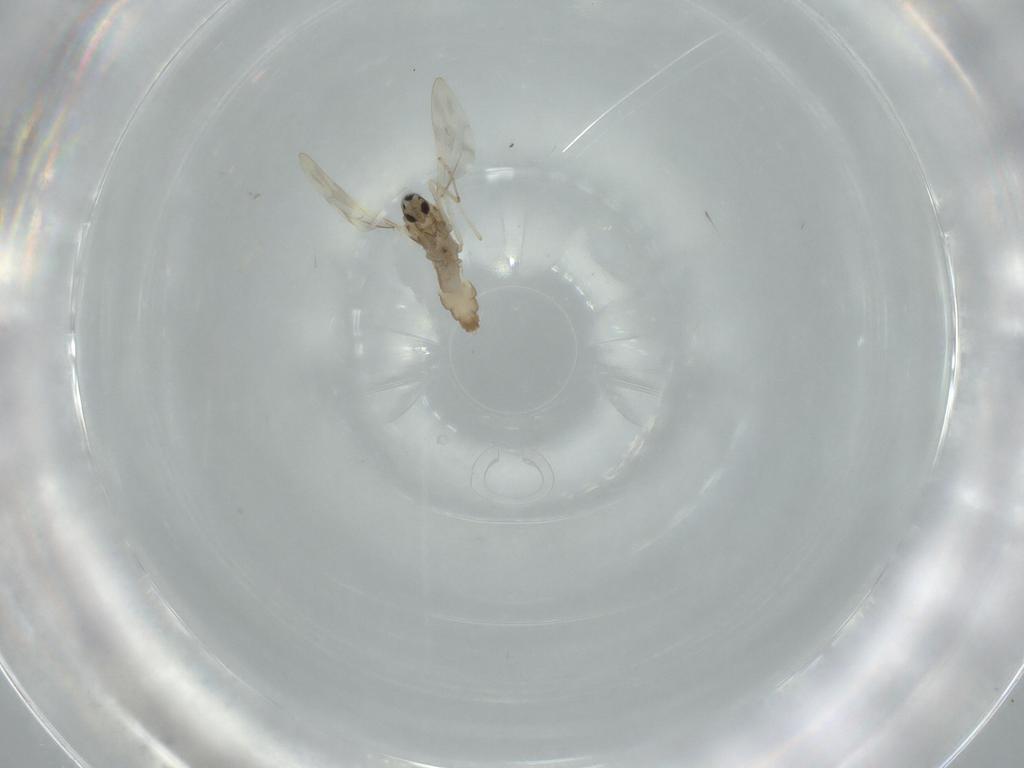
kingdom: Animalia
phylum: Arthropoda
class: Insecta
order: Diptera
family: Cecidomyiidae
